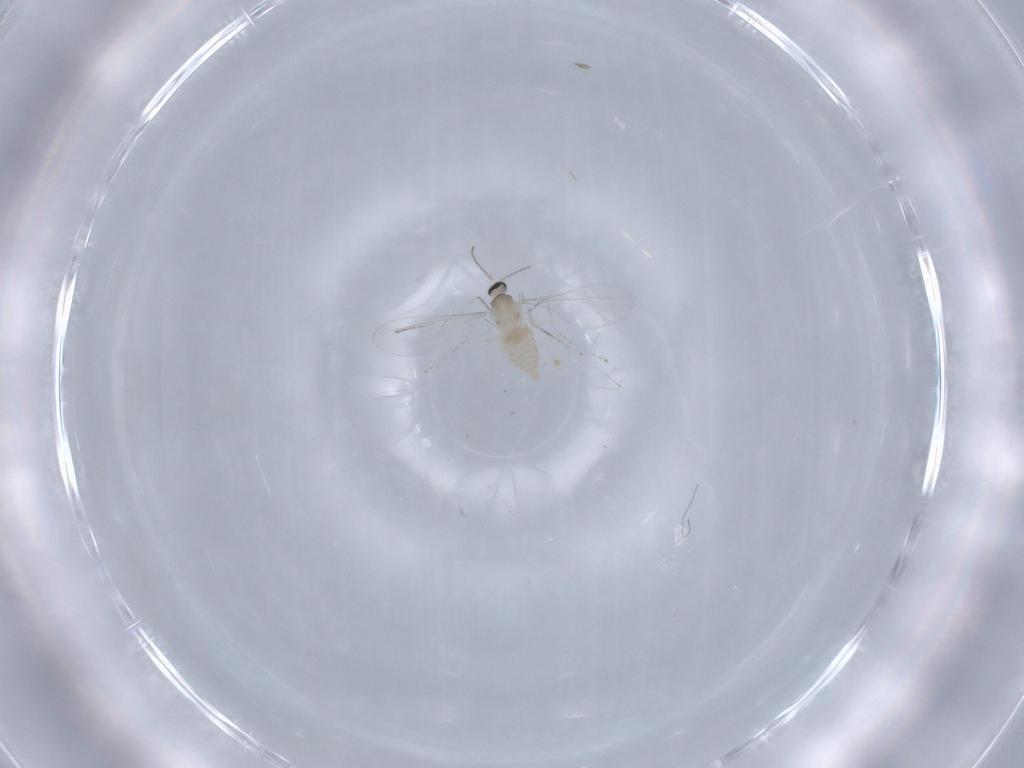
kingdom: Animalia
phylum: Arthropoda
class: Insecta
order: Diptera
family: Cecidomyiidae
